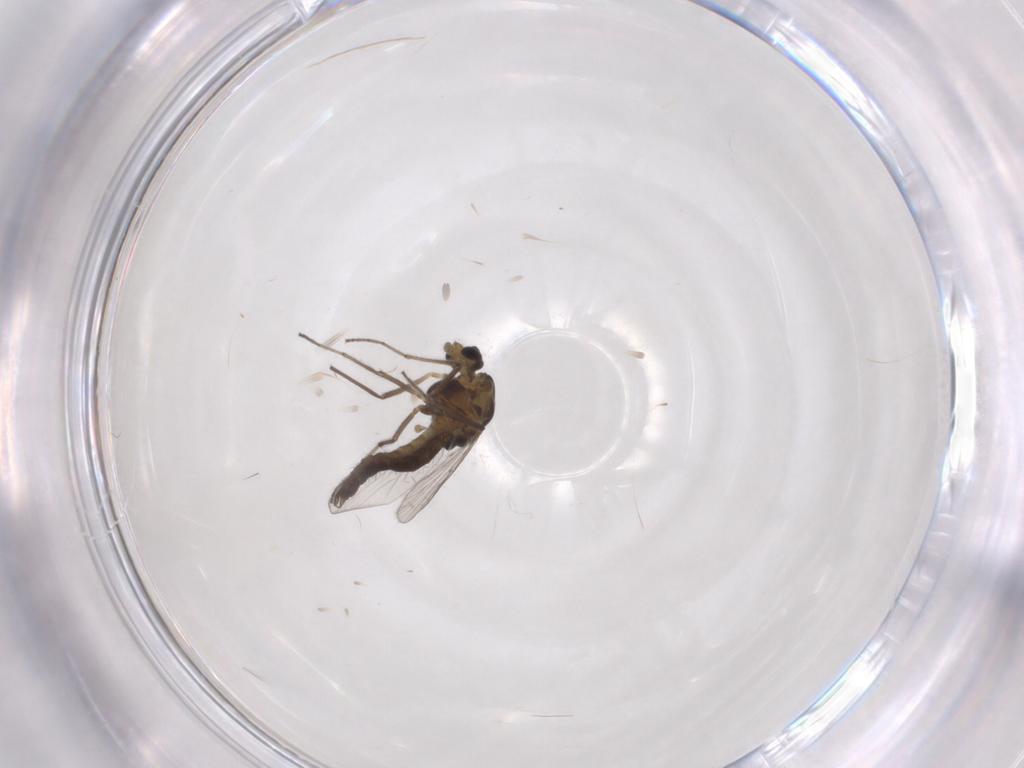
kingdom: Animalia
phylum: Arthropoda
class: Insecta
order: Diptera
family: Chironomidae
